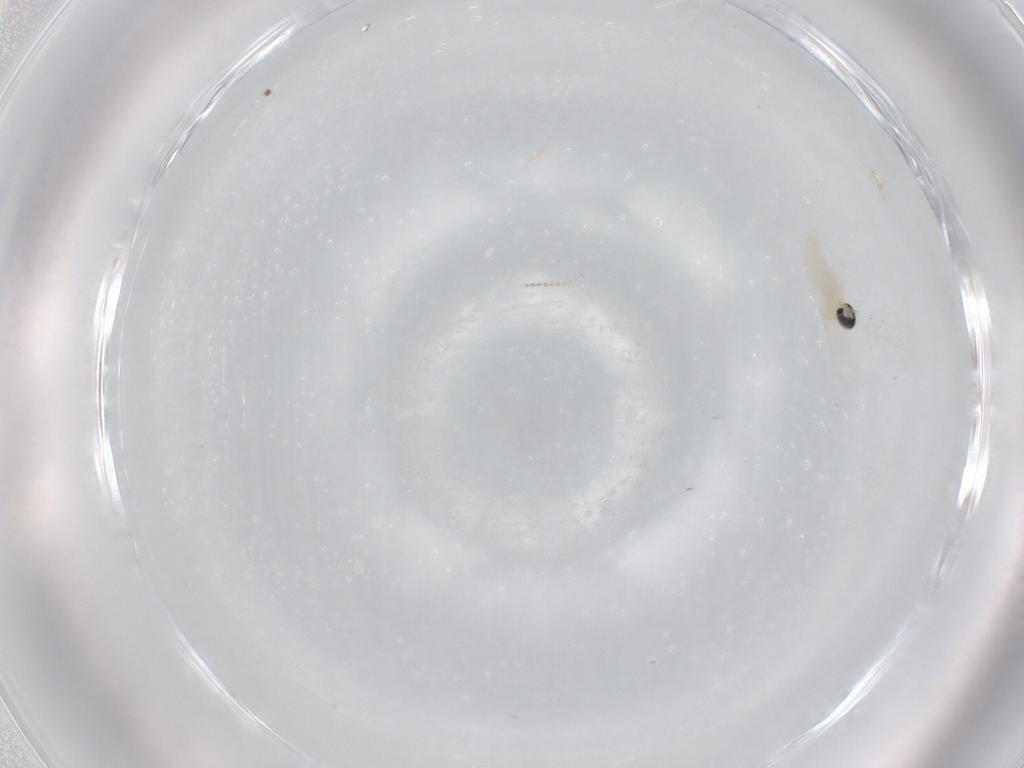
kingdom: Animalia
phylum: Arthropoda
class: Insecta
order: Diptera
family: Cecidomyiidae
